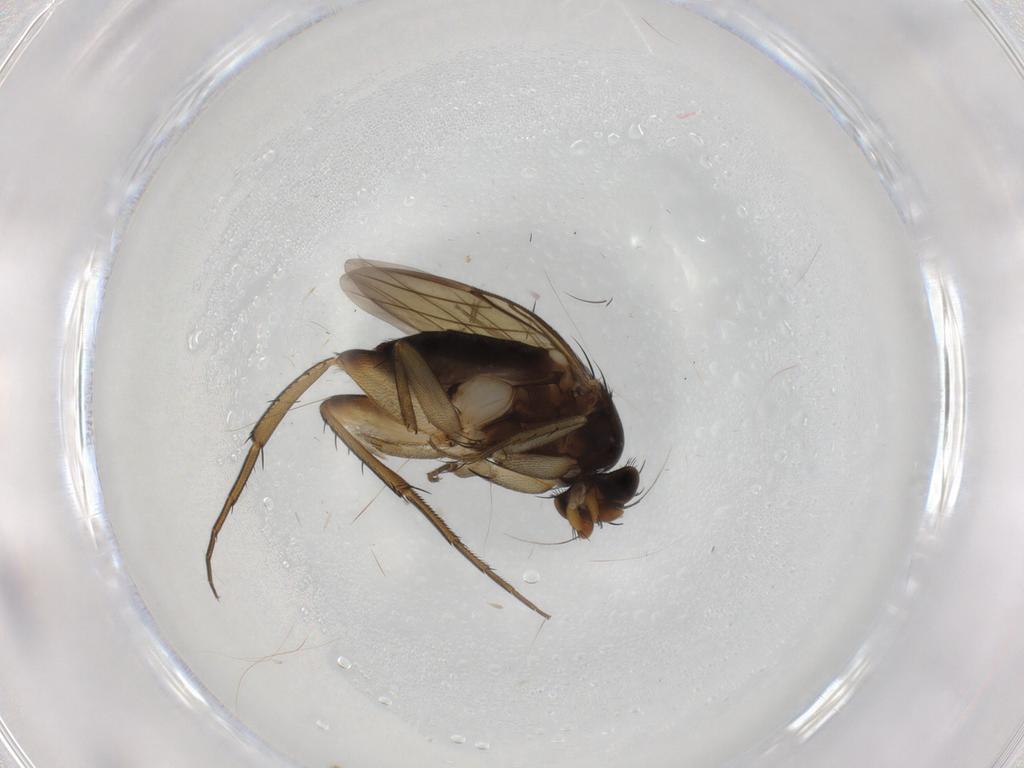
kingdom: Animalia
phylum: Arthropoda
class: Insecta
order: Diptera
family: Phoridae
